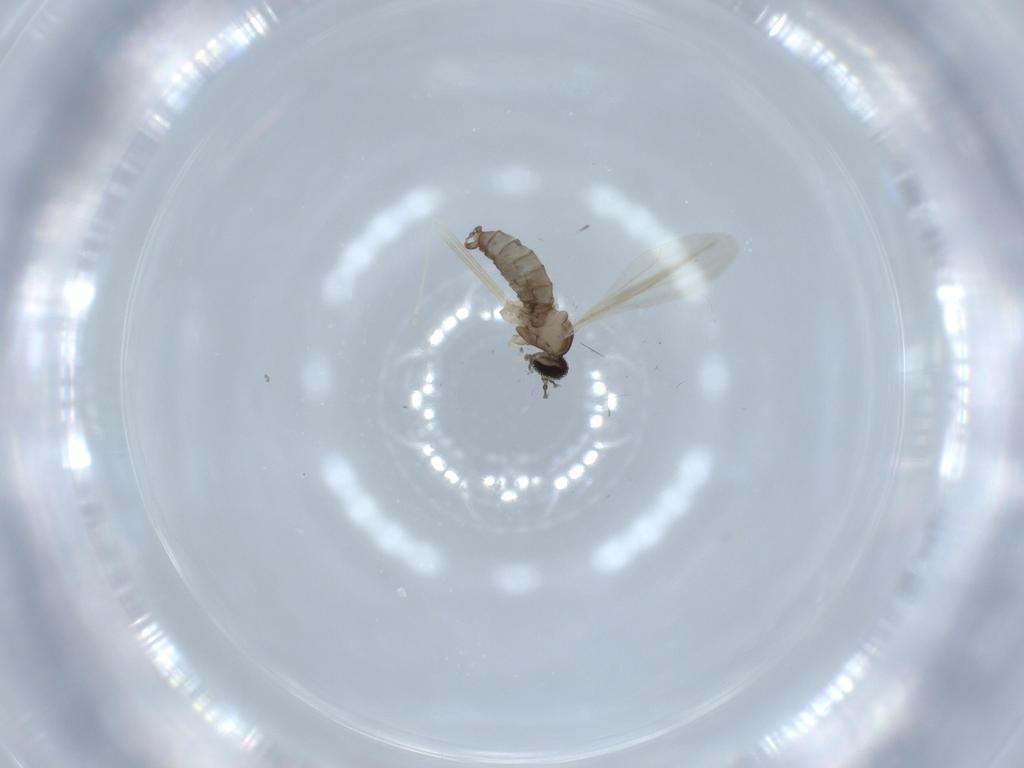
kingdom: Animalia
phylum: Arthropoda
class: Insecta
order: Diptera
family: Cecidomyiidae
